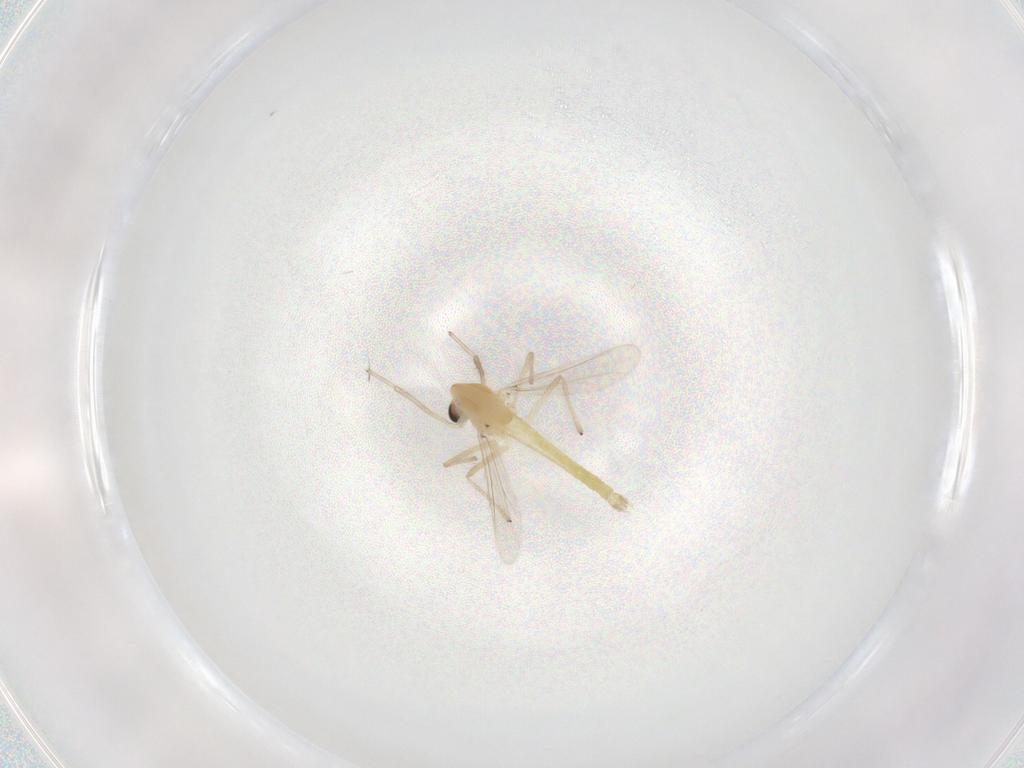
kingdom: Animalia
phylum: Arthropoda
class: Insecta
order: Diptera
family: Chironomidae
